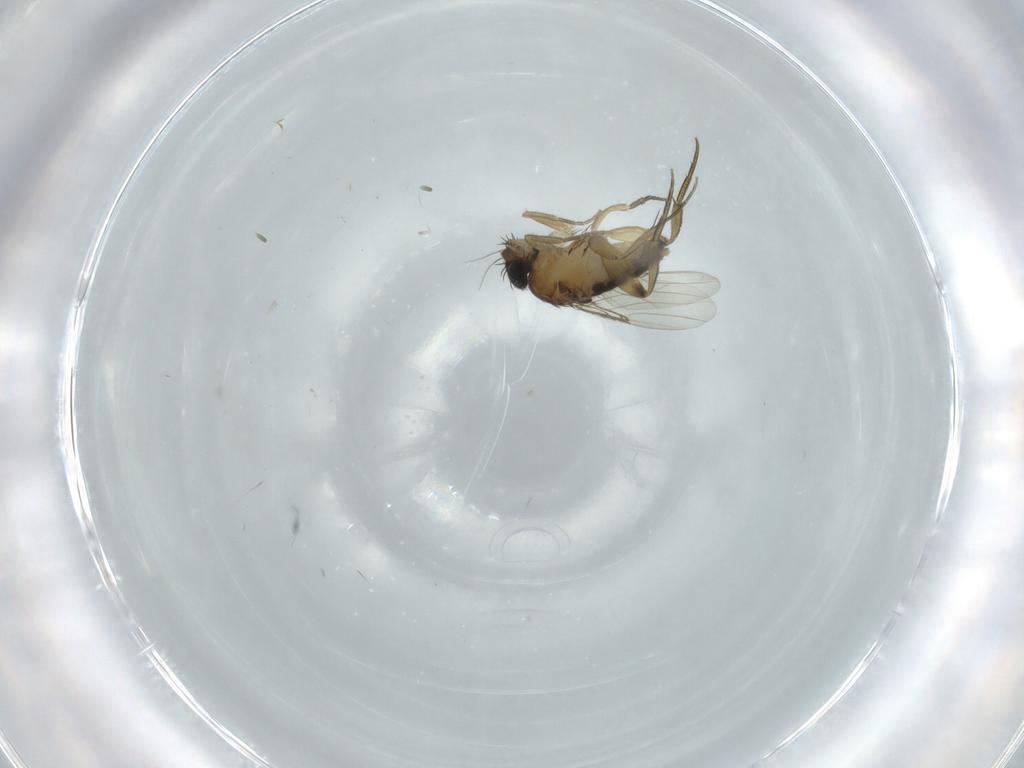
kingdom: Animalia
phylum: Arthropoda
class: Insecta
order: Diptera
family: Phoridae
